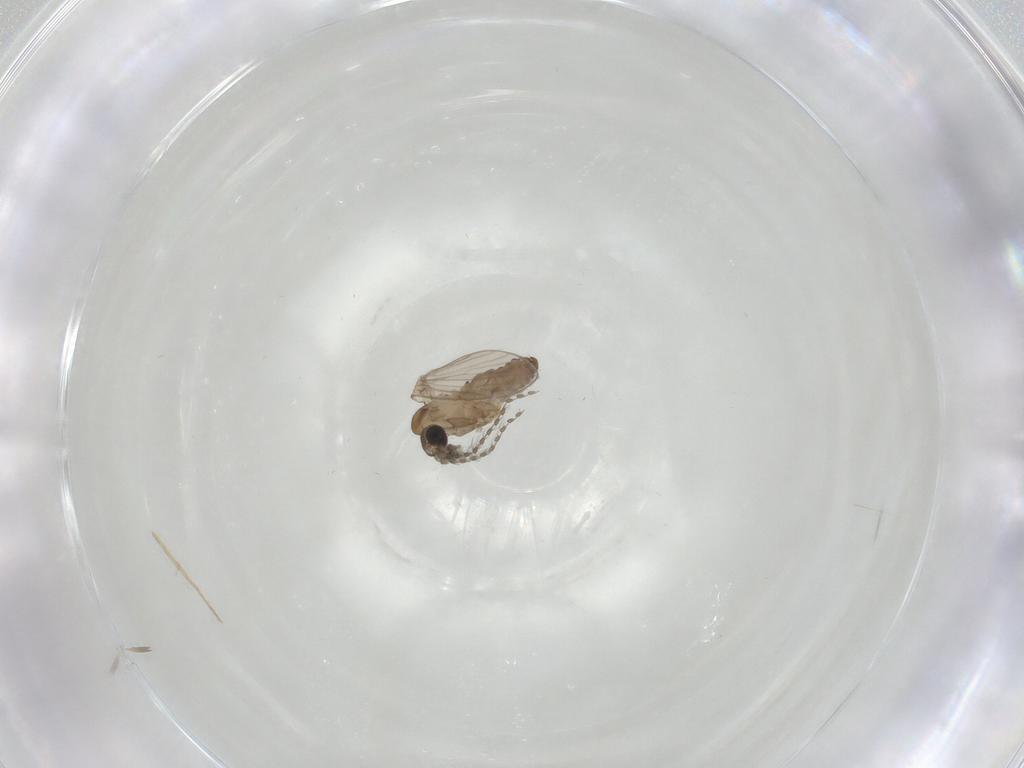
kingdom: Animalia
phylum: Arthropoda
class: Insecta
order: Diptera
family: Psychodidae
